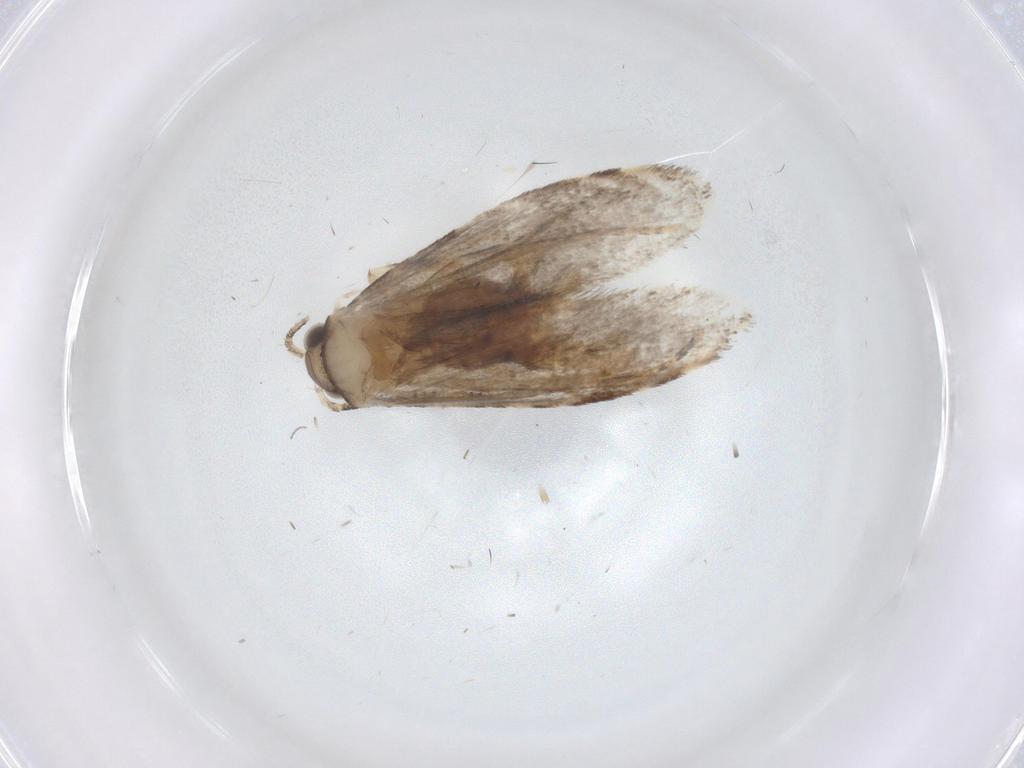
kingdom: Animalia
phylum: Arthropoda
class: Insecta
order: Lepidoptera
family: Tineidae
